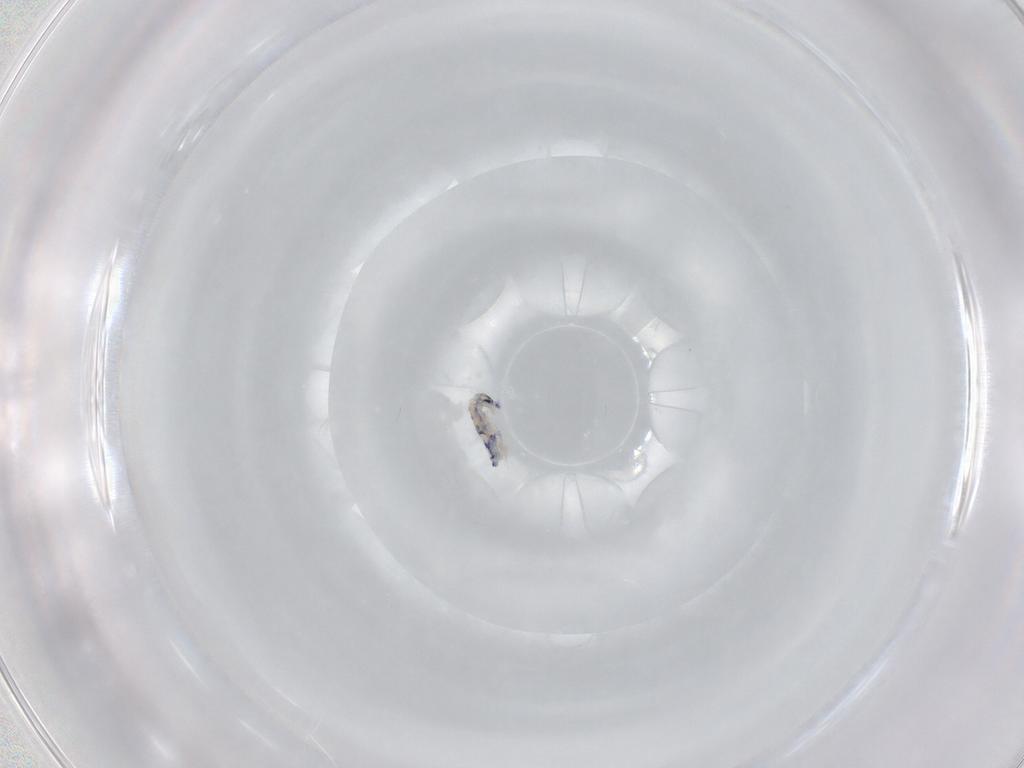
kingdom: Animalia
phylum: Arthropoda
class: Collembola
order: Entomobryomorpha
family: Entomobryidae
